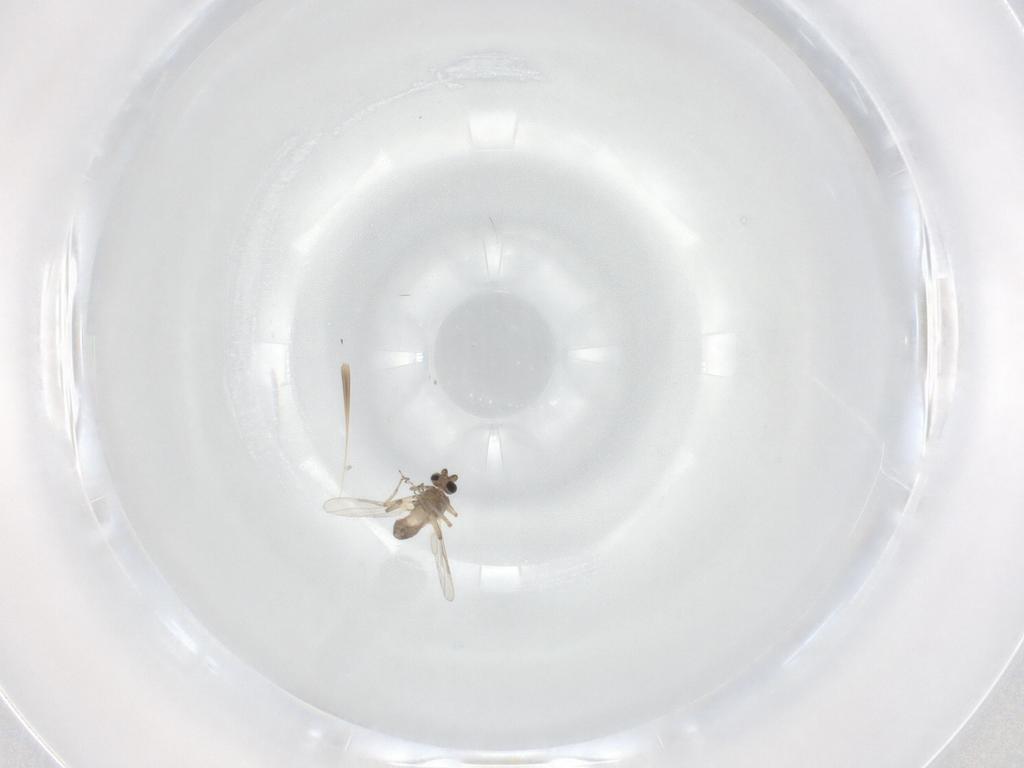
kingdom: Animalia
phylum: Arthropoda
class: Insecta
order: Diptera
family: Ceratopogonidae
